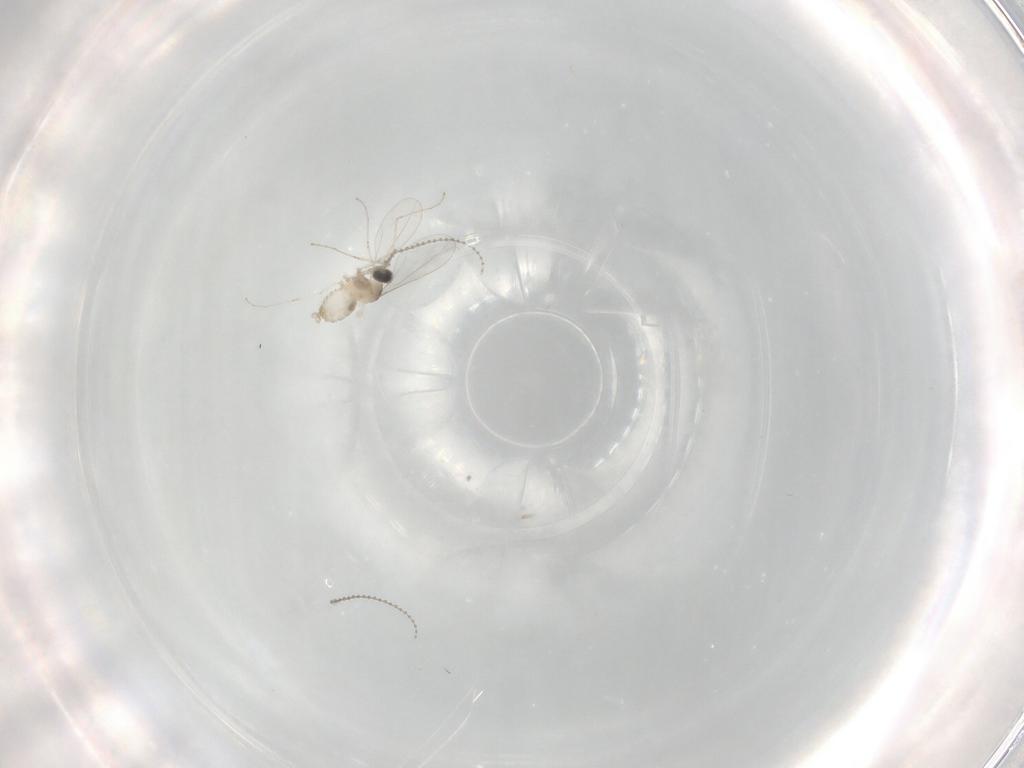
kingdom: Animalia
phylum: Arthropoda
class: Insecta
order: Diptera
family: Cecidomyiidae
